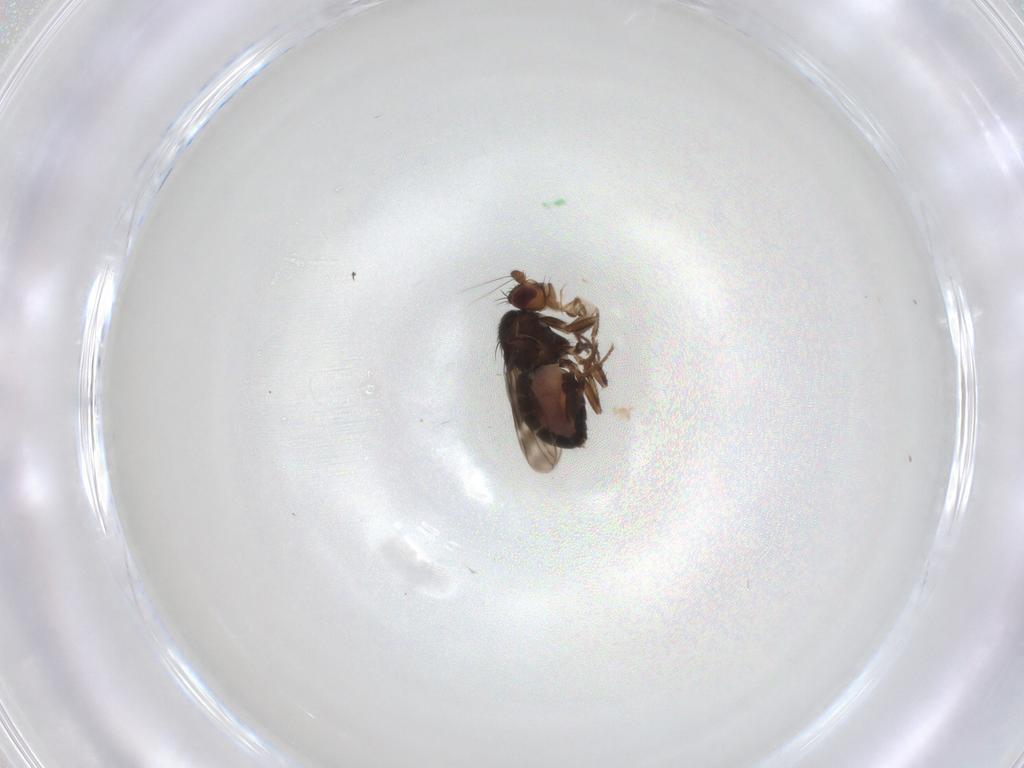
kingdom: Animalia
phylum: Arthropoda
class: Insecta
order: Diptera
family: Sphaeroceridae
